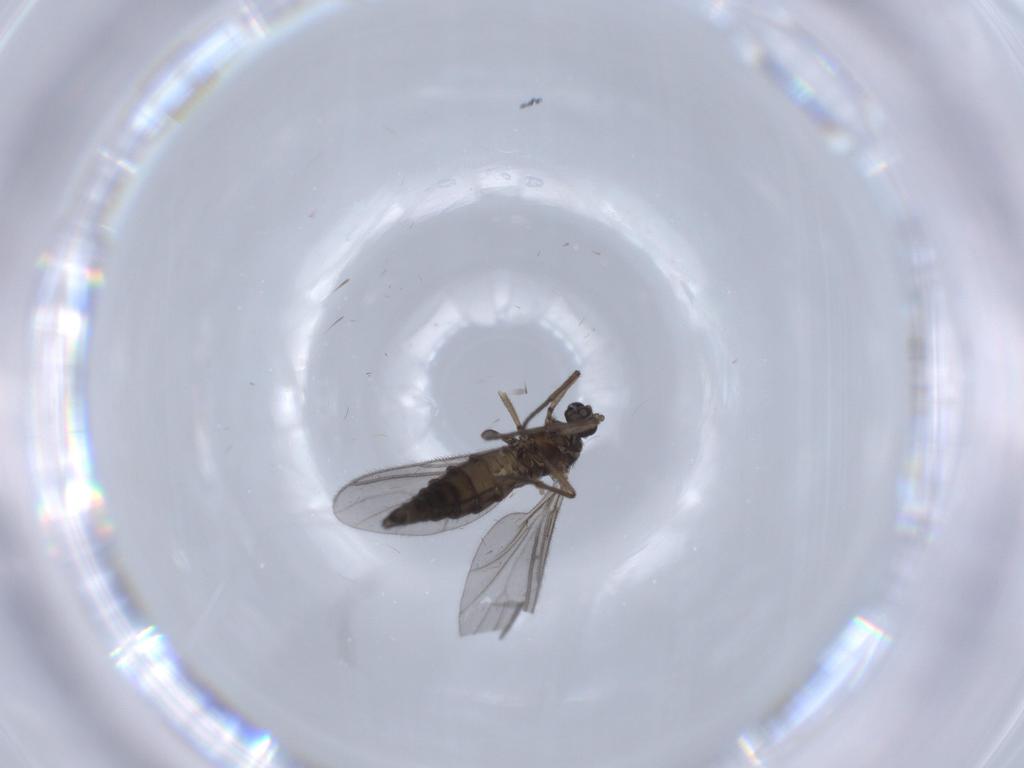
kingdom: Animalia
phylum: Arthropoda
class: Insecta
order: Diptera
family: Sciaridae
